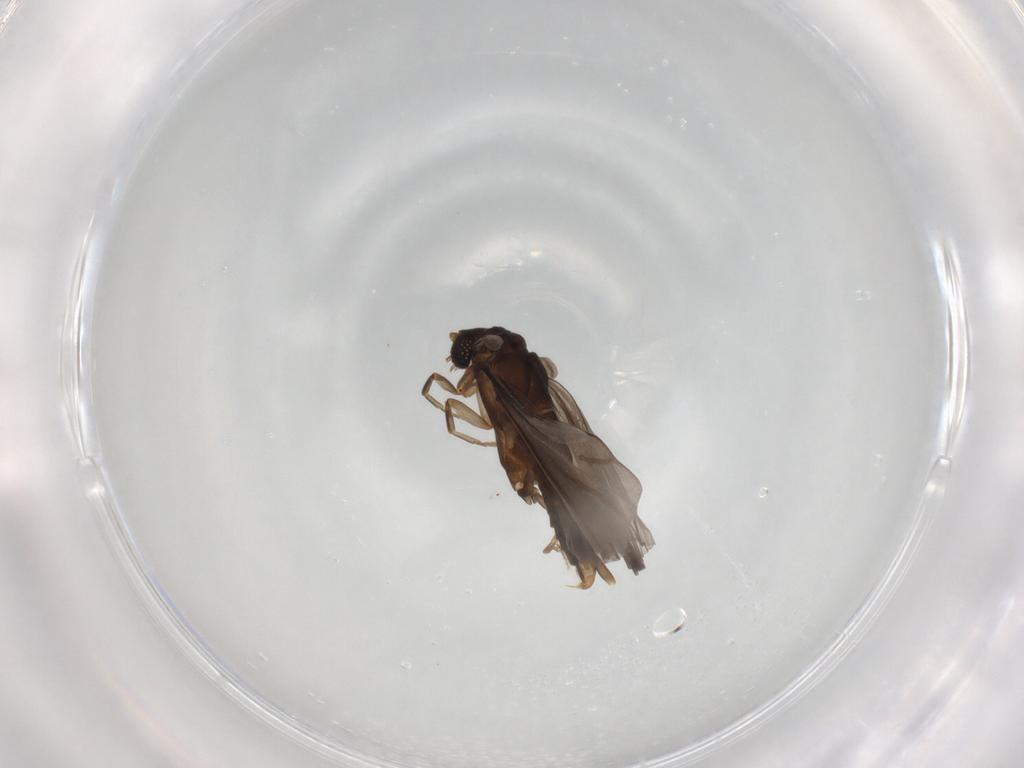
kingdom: Animalia
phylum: Arthropoda
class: Insecta
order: Strepsiptera
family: Mengenillidae
